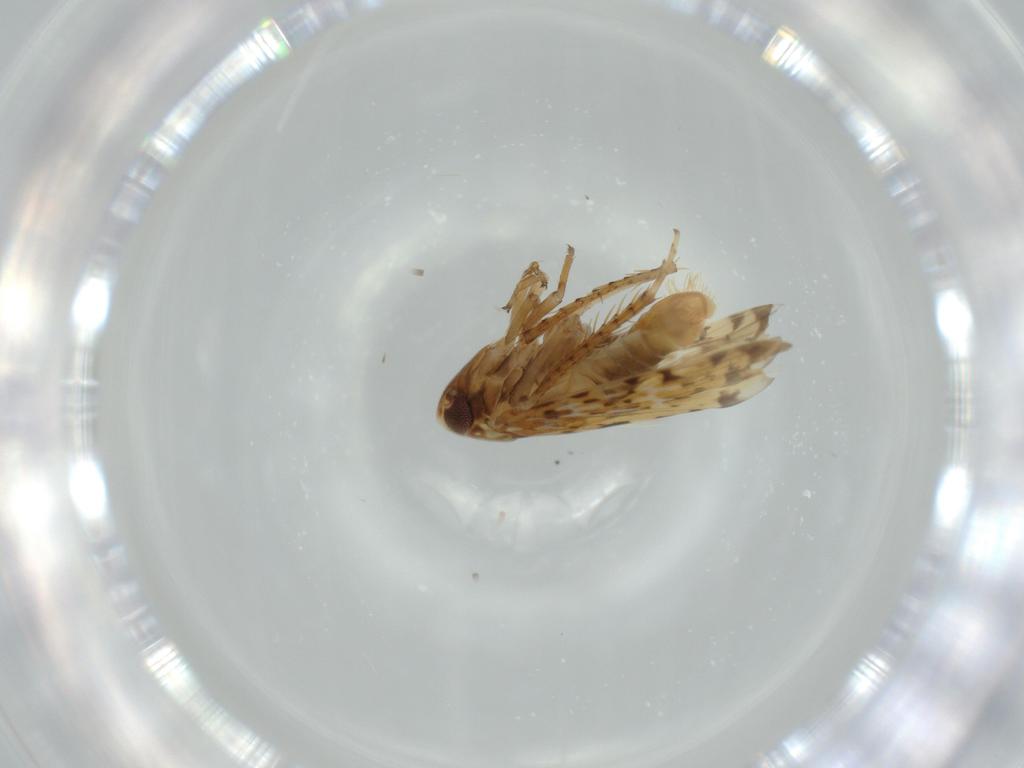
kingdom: Animalia
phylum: Arthropoda
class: Insecta
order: Hemiptera
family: Cicadellidae
